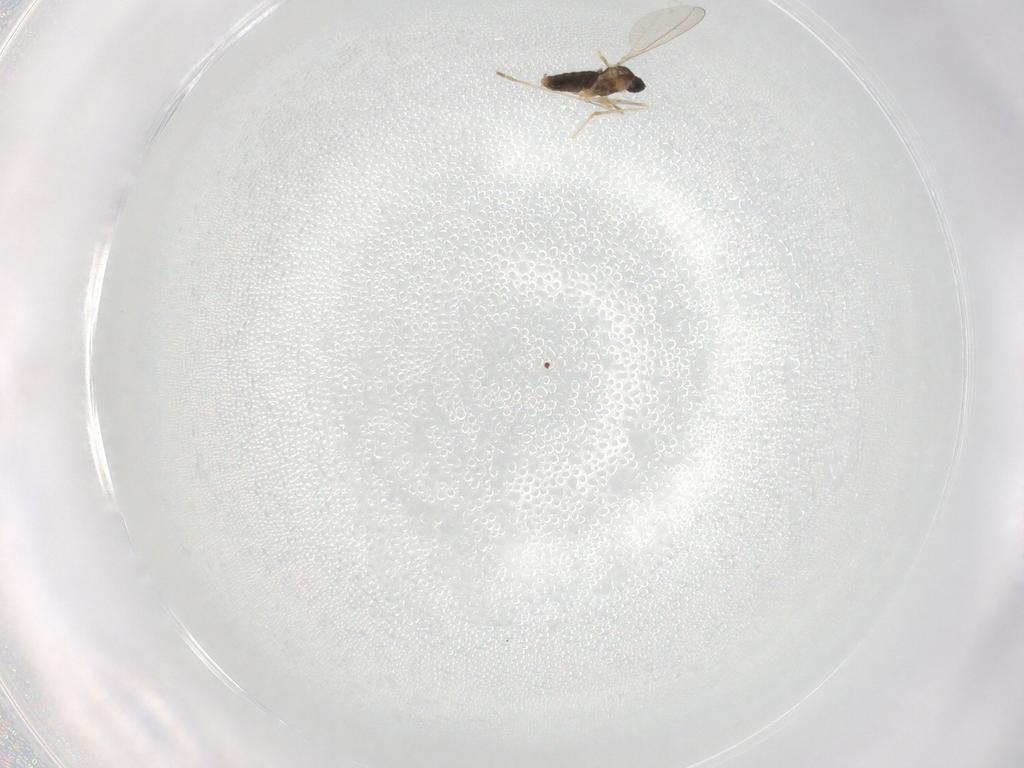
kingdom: Animalia
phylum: Arthropoda
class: Insecta
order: Diptera
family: Cecidomyiidae
